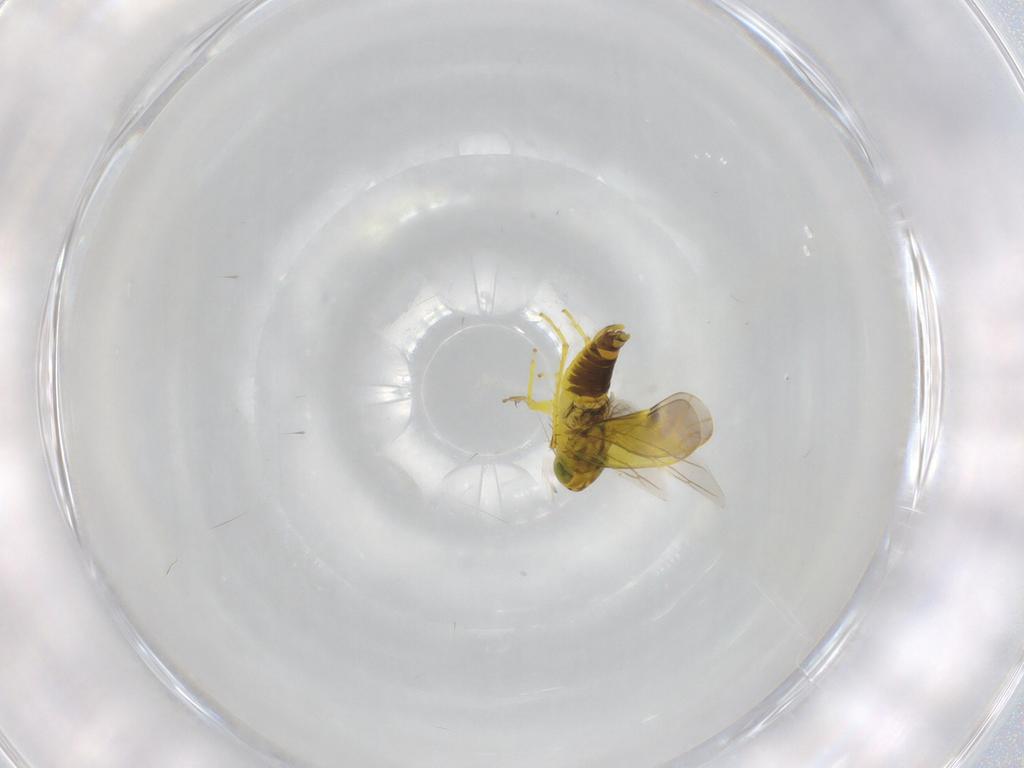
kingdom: Animalia
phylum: Arthropoda
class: Insecta
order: Hemiptera
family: Cicadellidae
